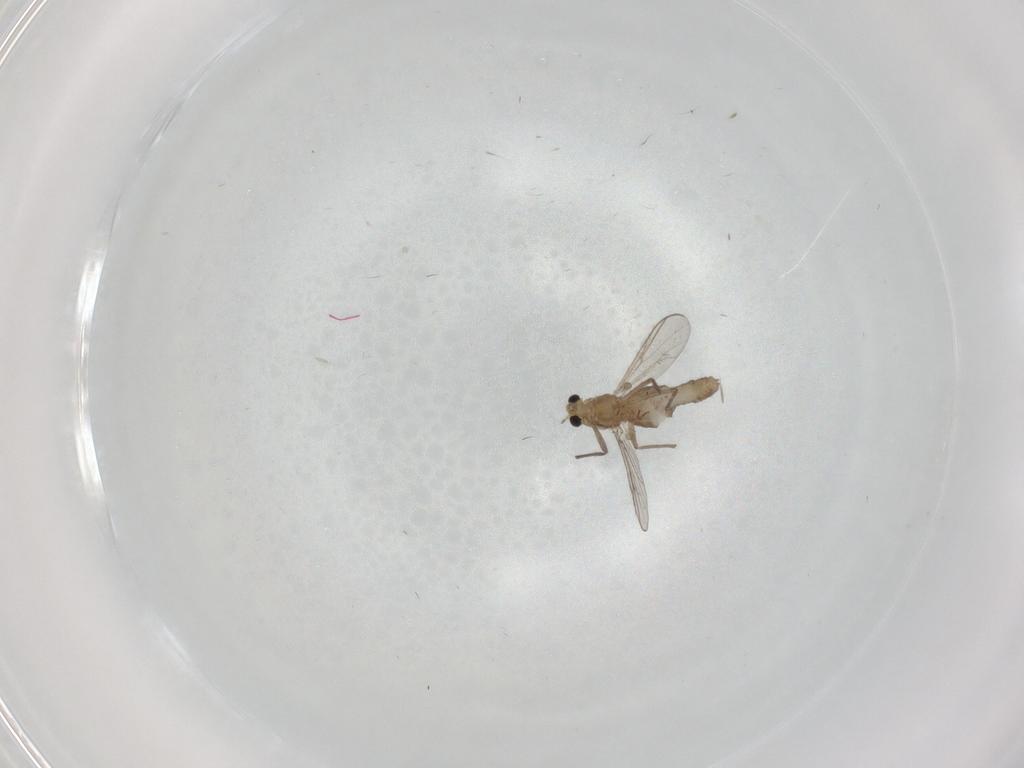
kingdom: Animalia
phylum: Arthropoda
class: Insecta
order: Diptera
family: Chironomidae
